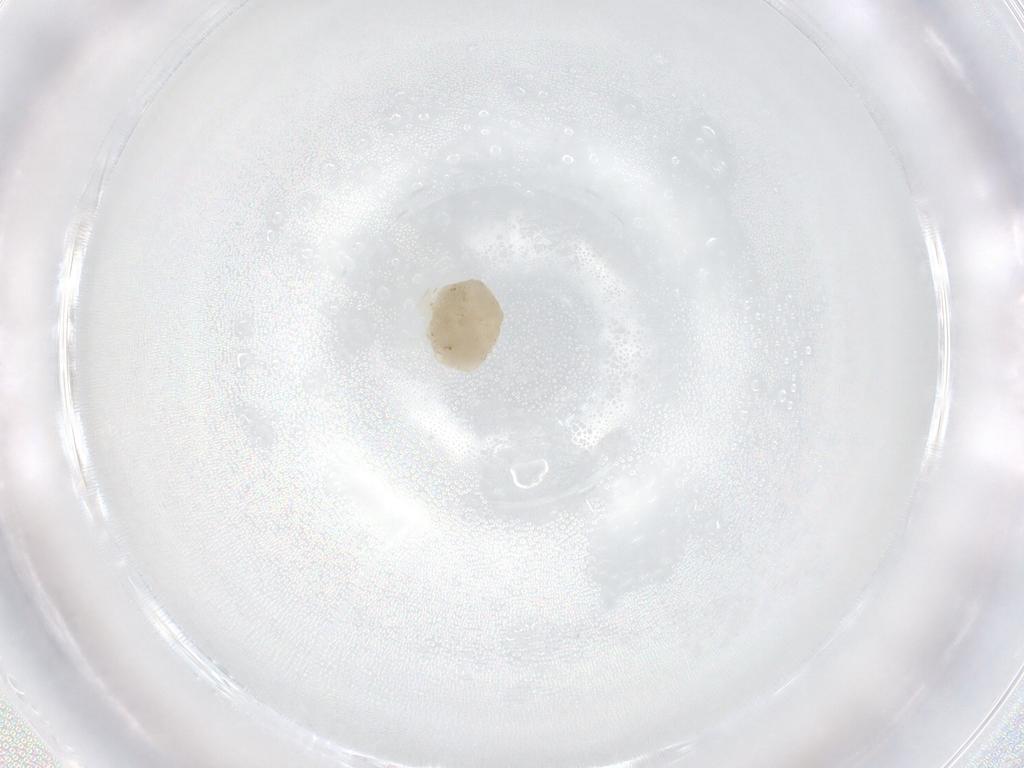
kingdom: Animalia
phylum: Arthropoda
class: Insecta
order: Diptera
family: Cecidomyiidae
